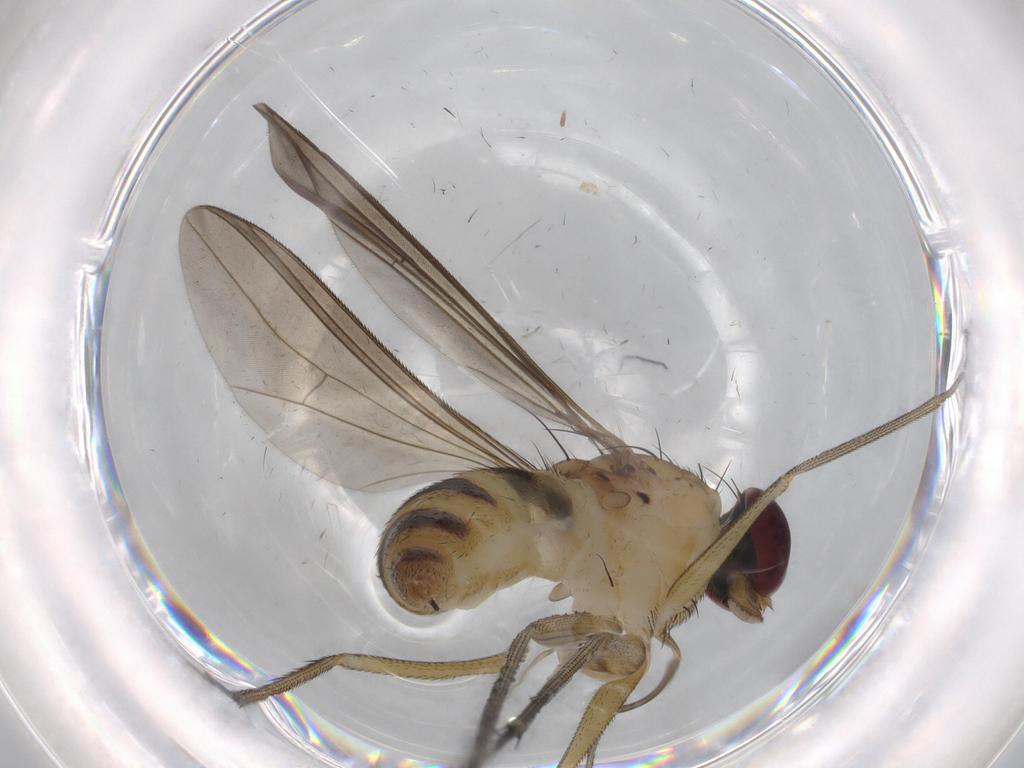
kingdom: Animalia
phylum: Arthropoda
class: Insecta
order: Diptera
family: Dolichopodidae
